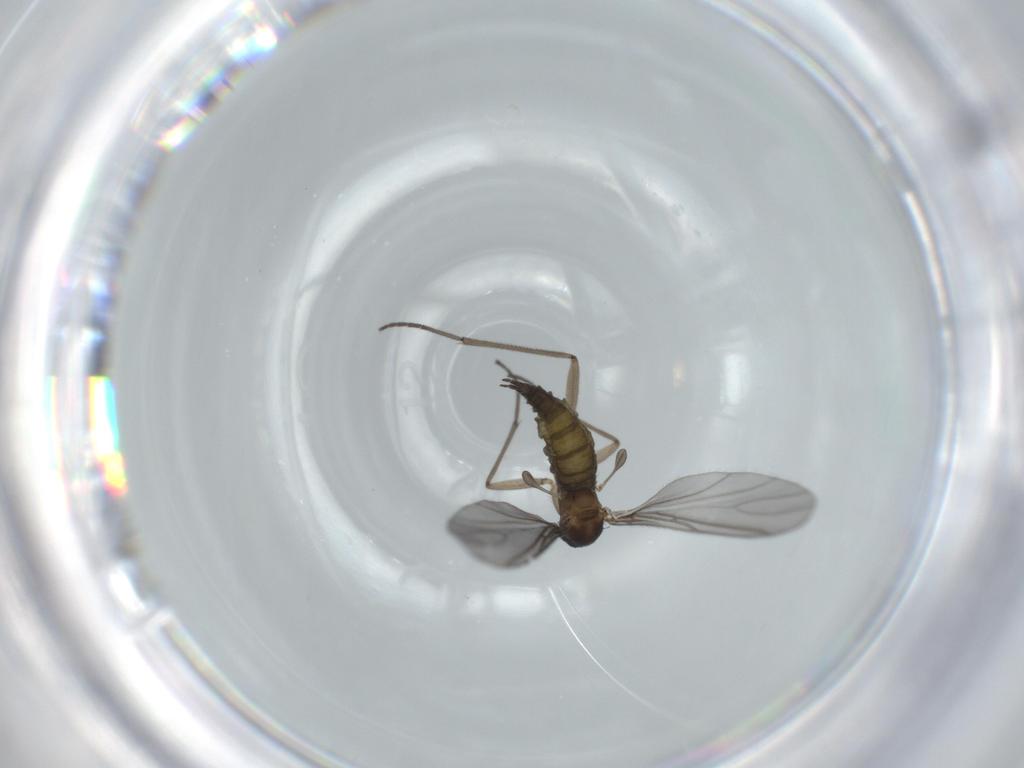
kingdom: Animalia
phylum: Arthropoda
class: Insecta
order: Diptera
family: Sciaridae
